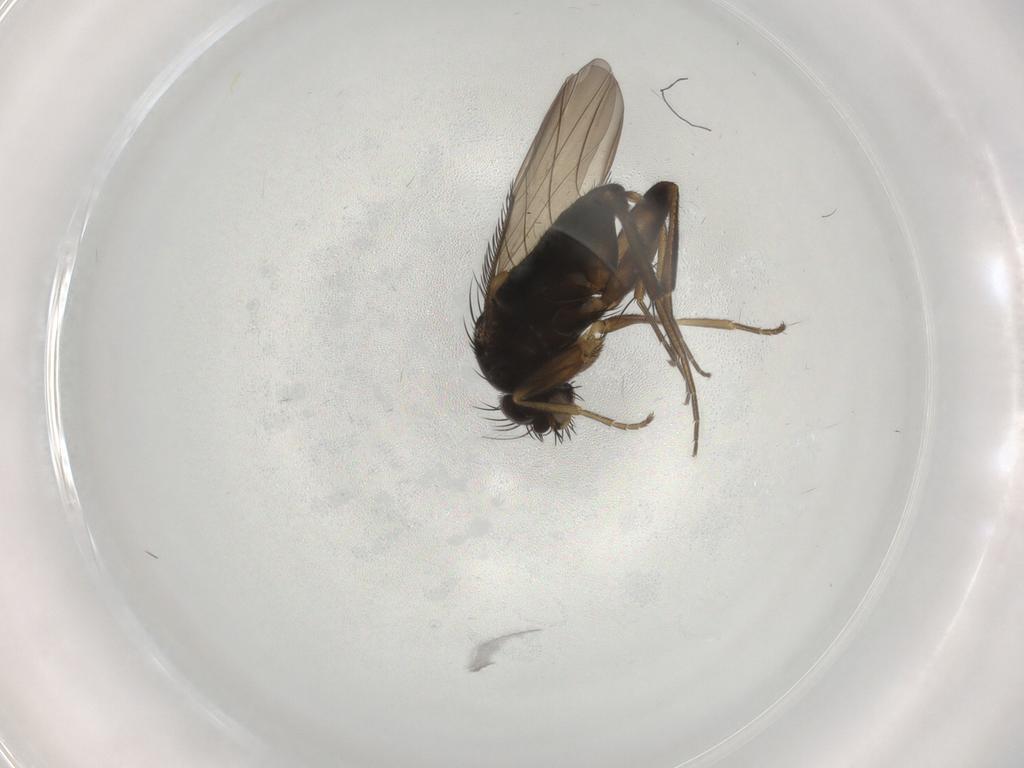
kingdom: Animalia
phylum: Arthropoda
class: Insecta
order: Diptera
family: Phoridae
